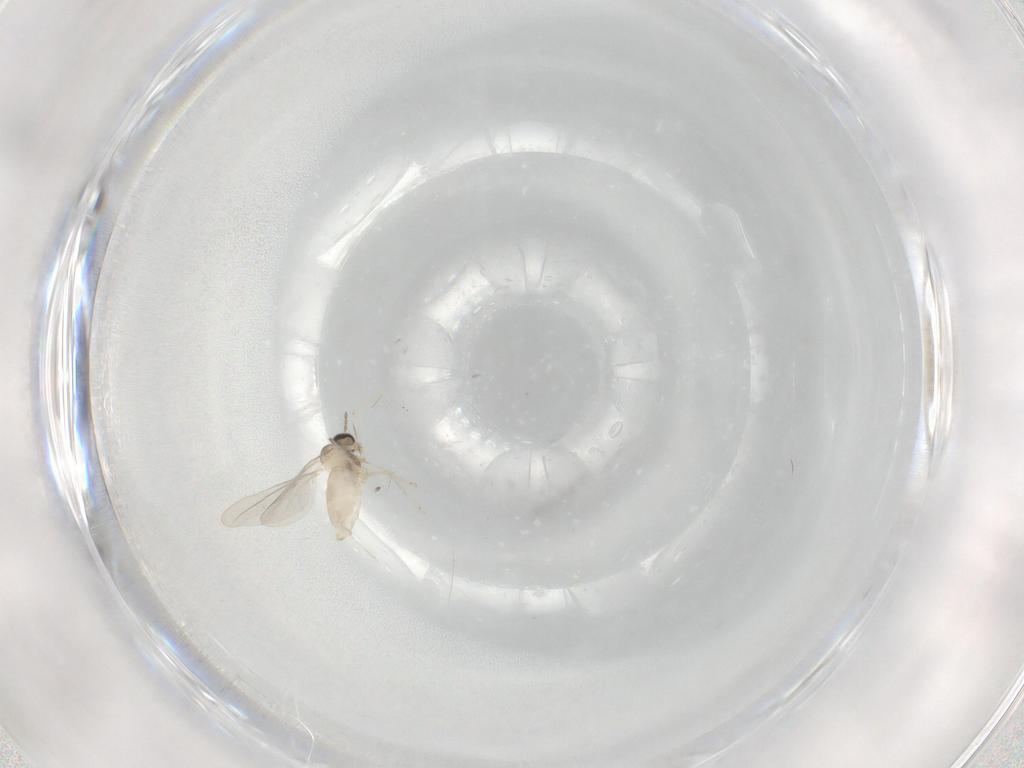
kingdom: Animalia
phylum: Arthropoda
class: Insecta
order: Diptera
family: Cecidomyiidae
